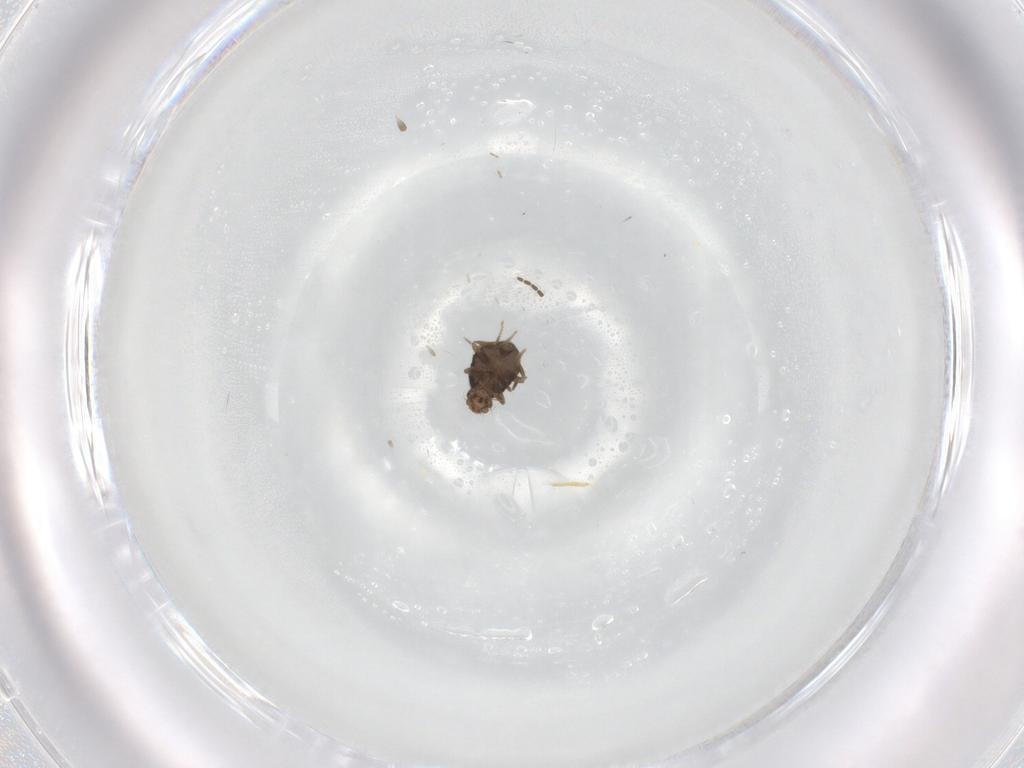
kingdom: Animalia
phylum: Arthropoda
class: Insecta
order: Diptera
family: Phoridae
